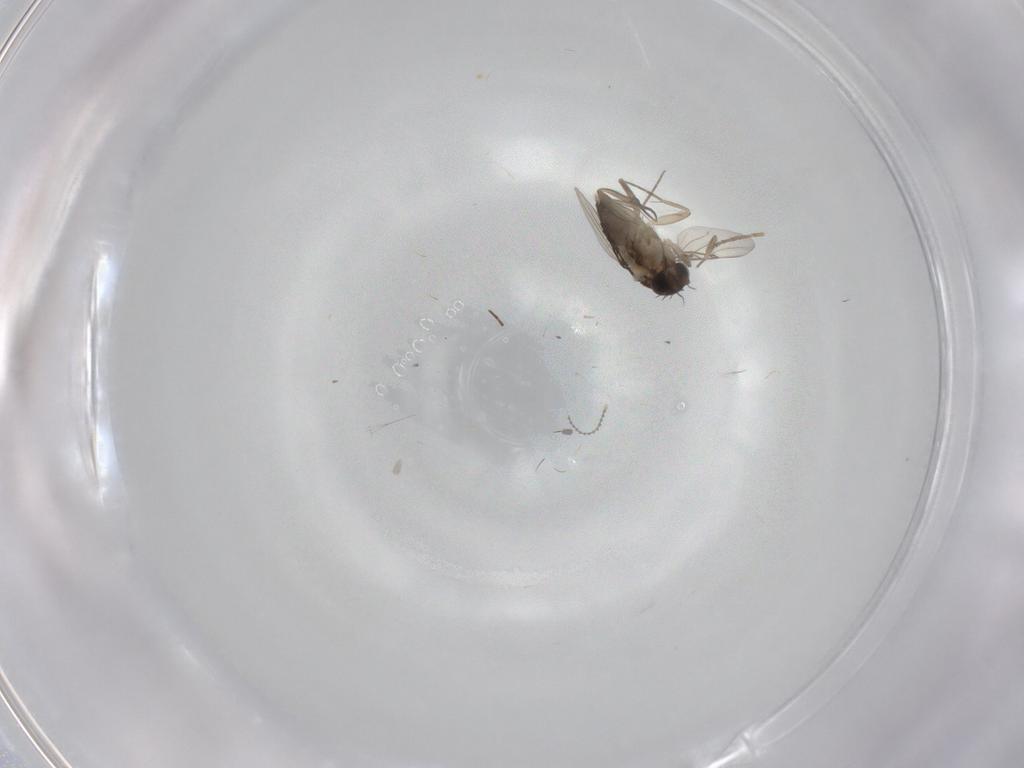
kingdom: Animalia
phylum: Arthropoda
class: Insecta
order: Diptera
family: Phoridae
